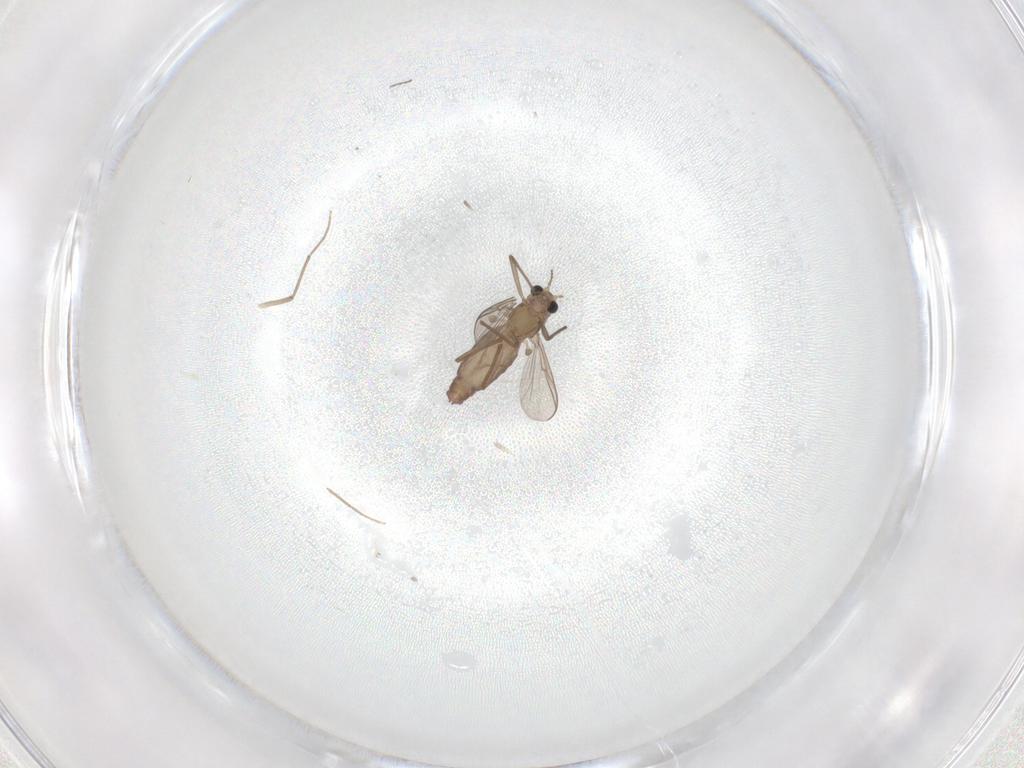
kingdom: Animalia
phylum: Arthropoda
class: Insecta
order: Diptera
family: Chironomidae
